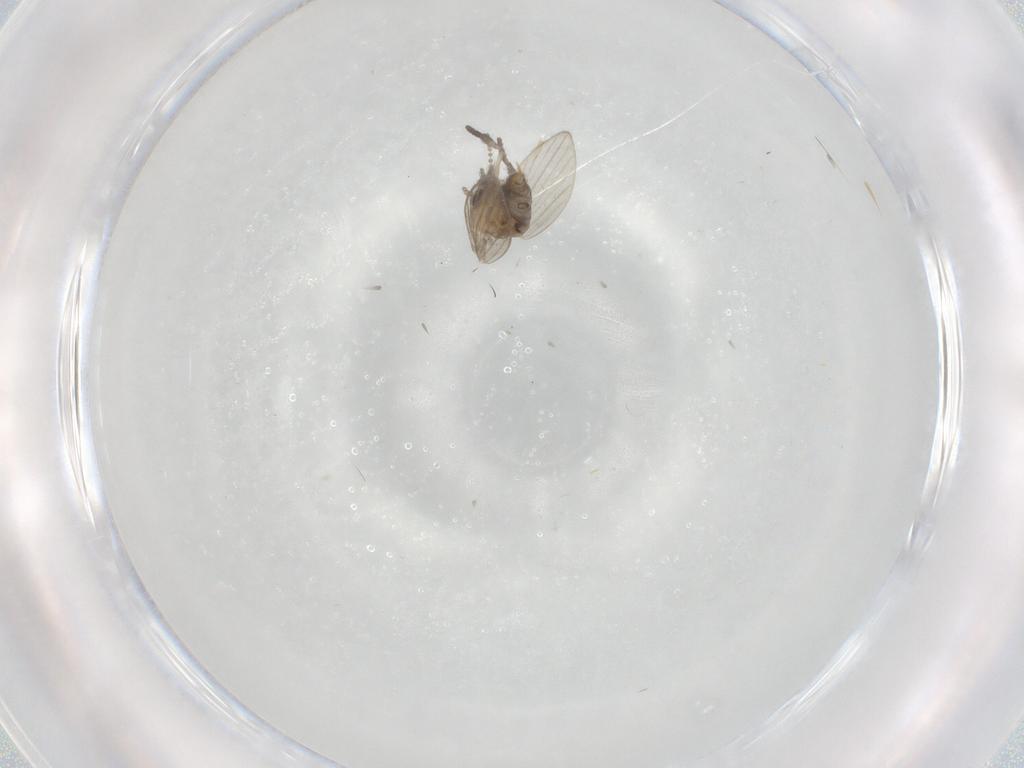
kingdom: Animalia
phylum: Arthropoda
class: Insecta
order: Diptera
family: Psychodidae
